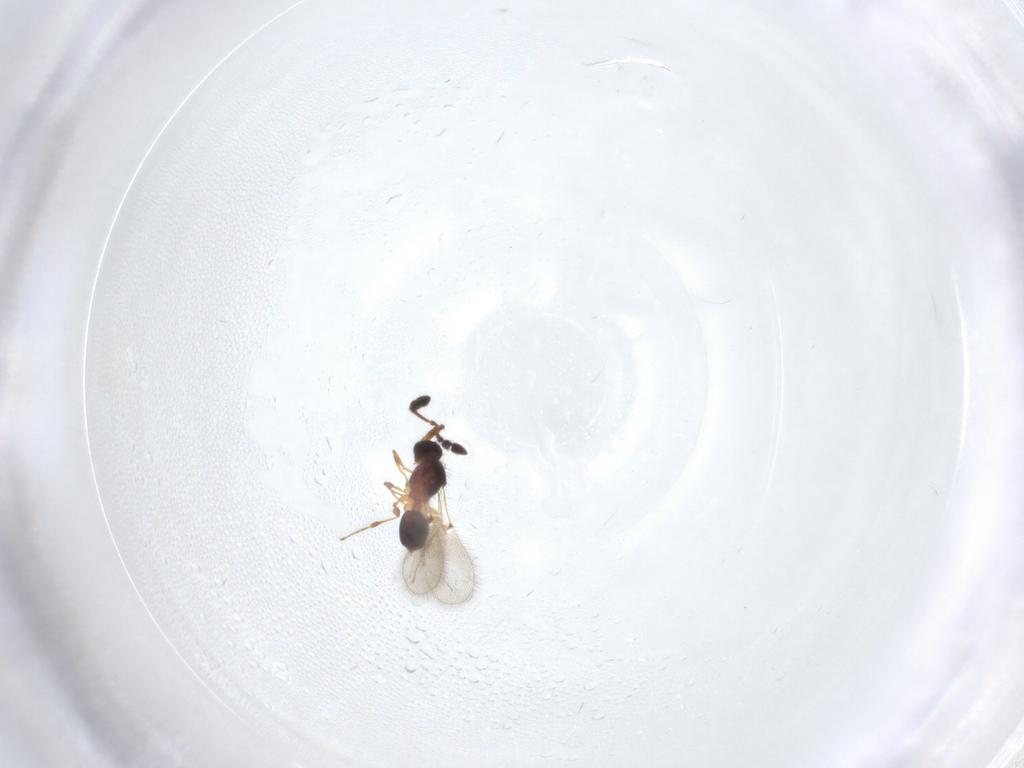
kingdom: Animalia
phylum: Arthropoda
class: Insecta
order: Hymenoptera
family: Diapriidae
